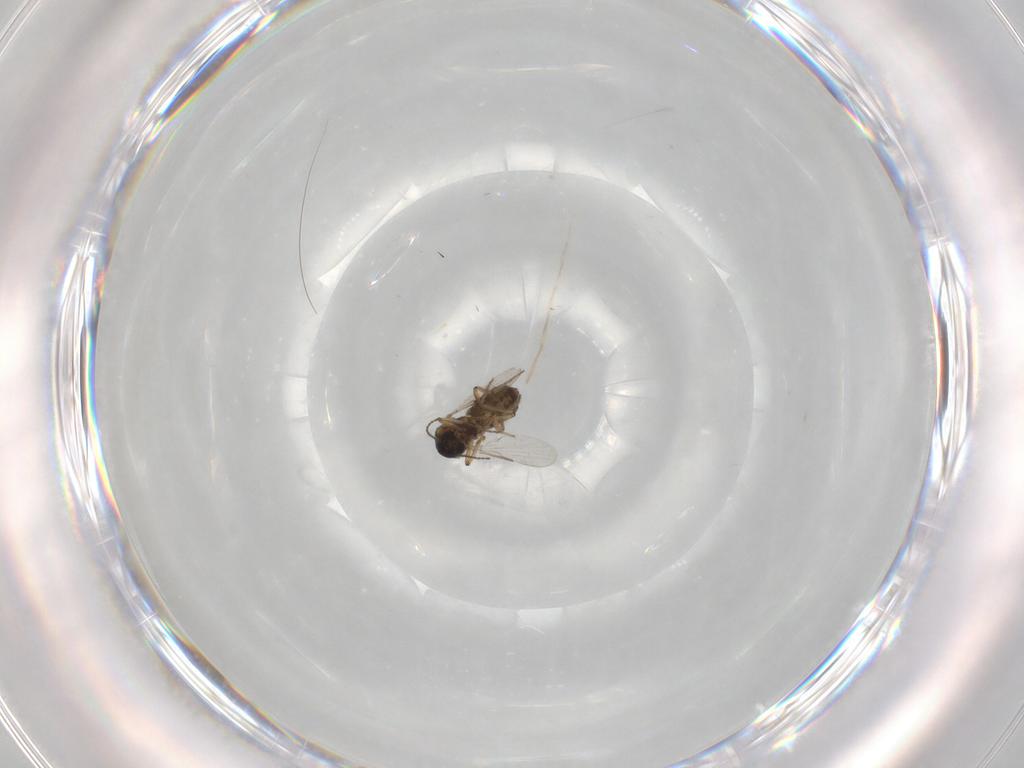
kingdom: Animalia
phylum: Arthropoda
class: Insecta
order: Diptera
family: Ceratopogonidae
